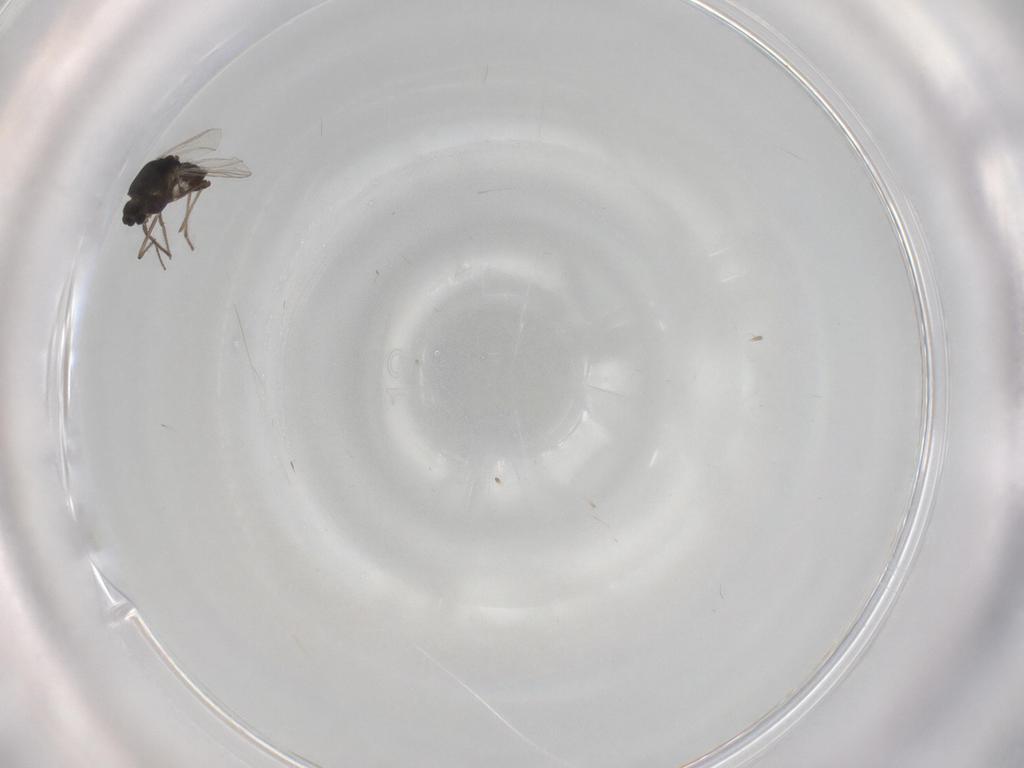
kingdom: Animalia
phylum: Arthropoda
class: Insecta
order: Diptera
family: Chironomidae
